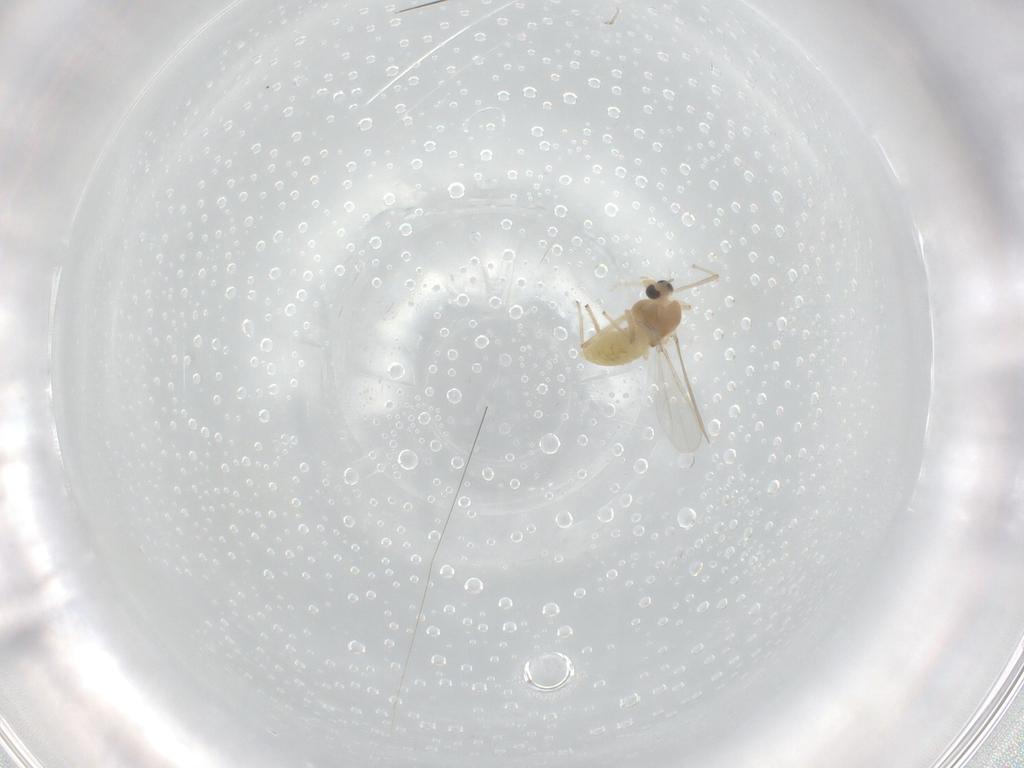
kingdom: Animalia
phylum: Arthropoda
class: Insecta
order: Diptera
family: Chironomidae
